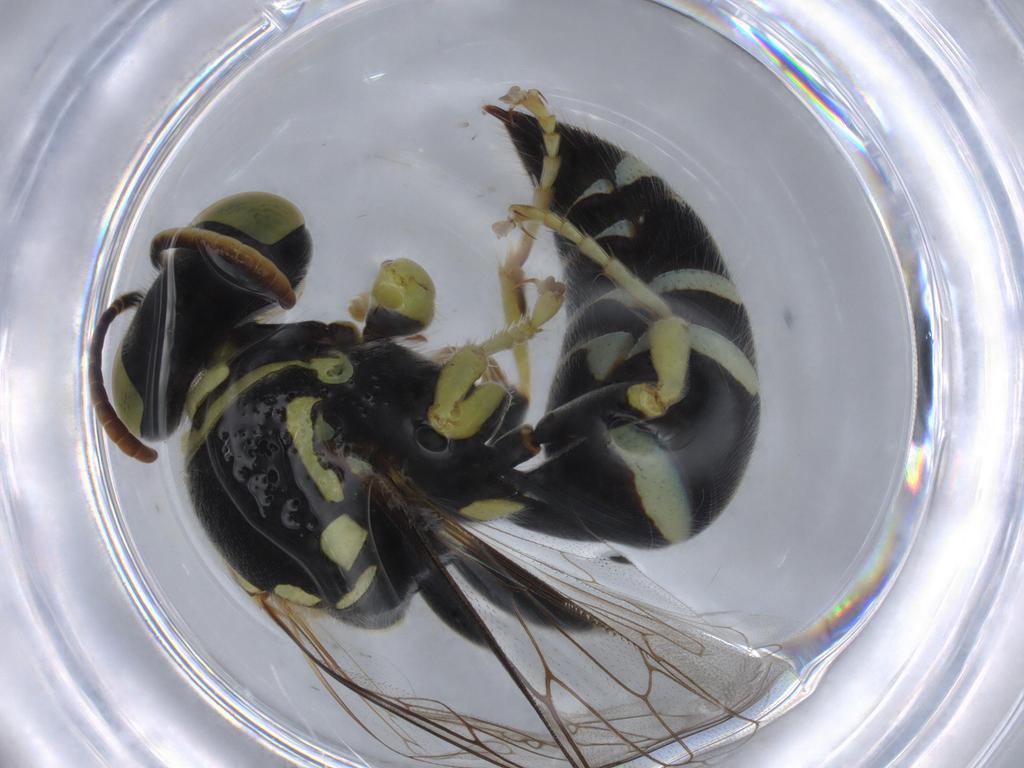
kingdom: Animalia
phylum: Arthropoda
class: Insecta
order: Hymenoptera
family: Crabronidae
